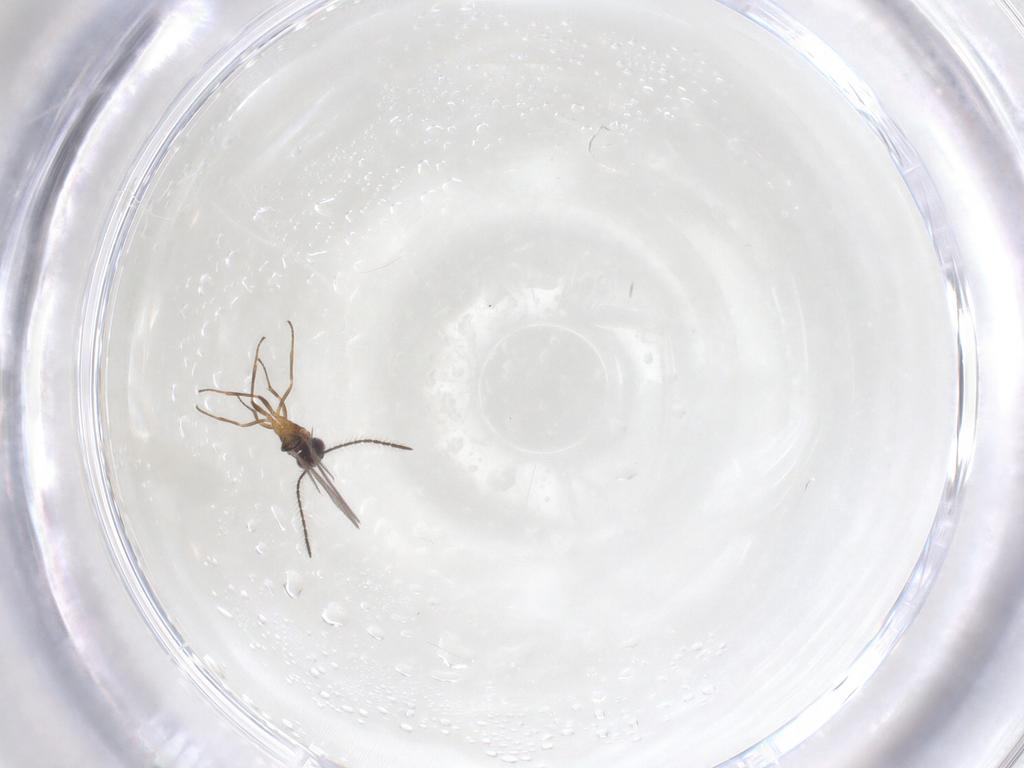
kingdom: Animalia
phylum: Arthropoda
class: Insecta
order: Hymenoptera
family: Eupelmidae
